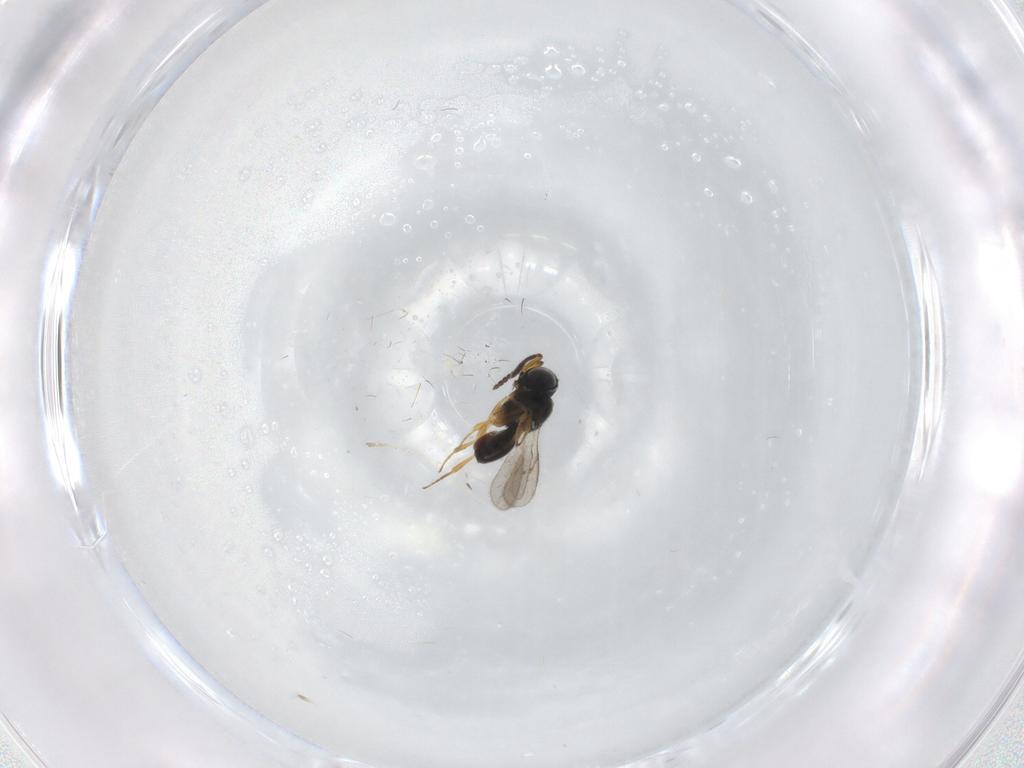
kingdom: Animalia
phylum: Arthropoda
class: Insecta
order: Hymenoptera
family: Scelionidae
